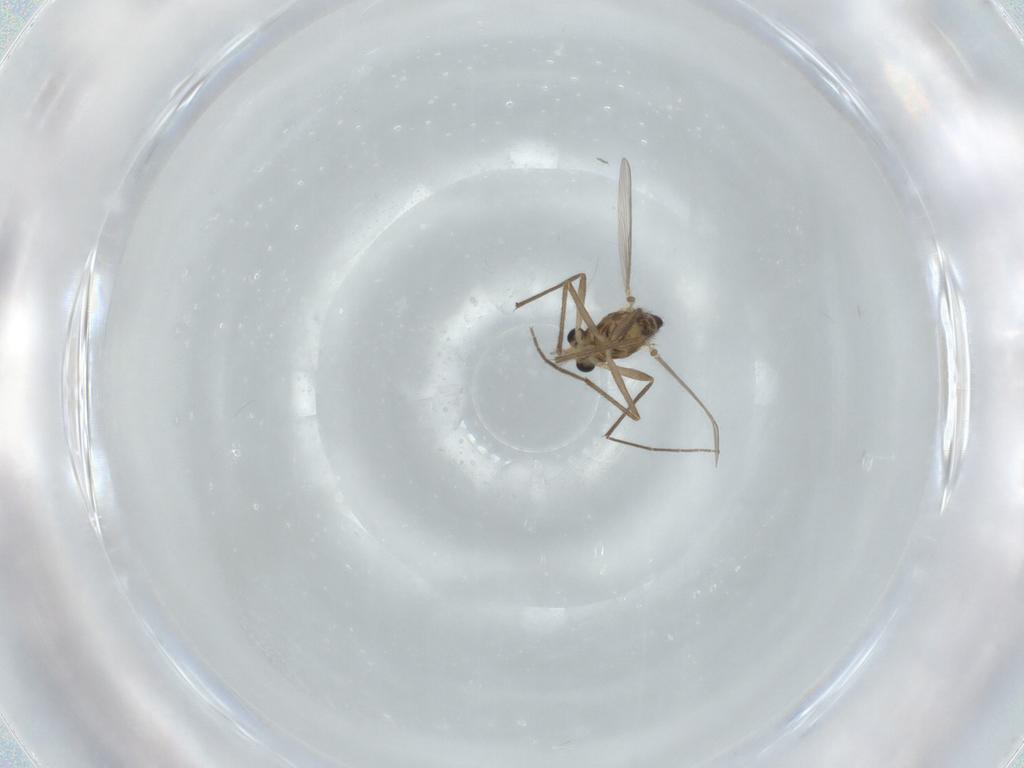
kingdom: Animalia
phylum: Arthropoda
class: Insecta
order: Diptera
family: Chironomidae
